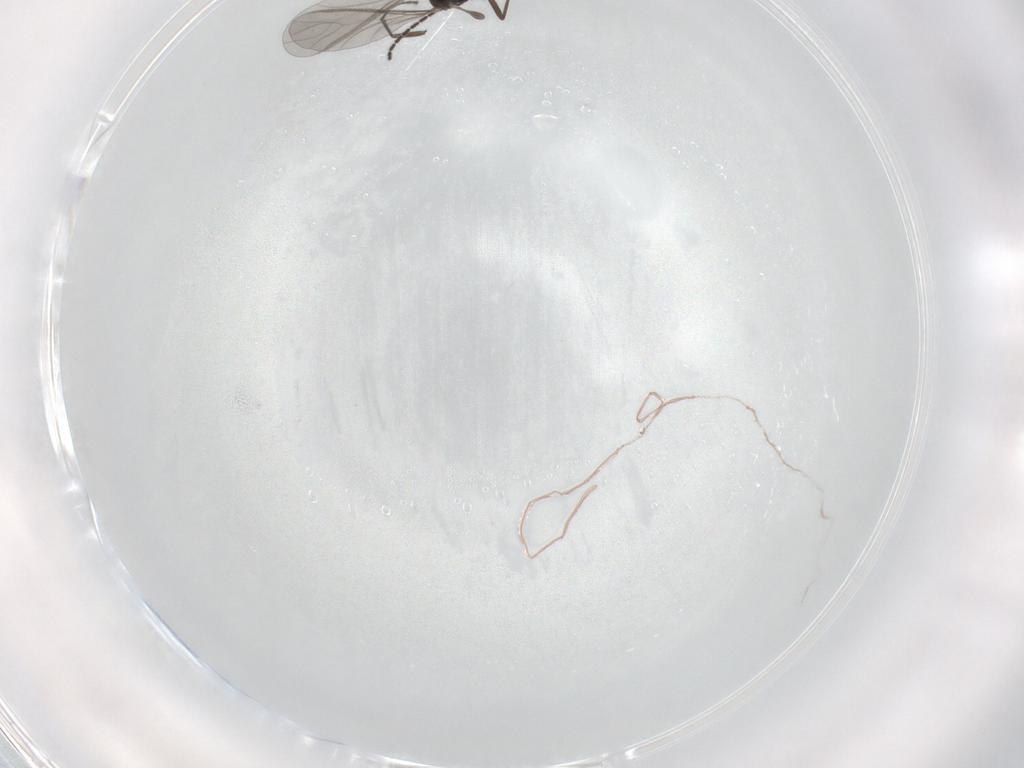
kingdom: Animalia
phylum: Arthropoda
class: Insecta
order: Diptera
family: Sciaridae
